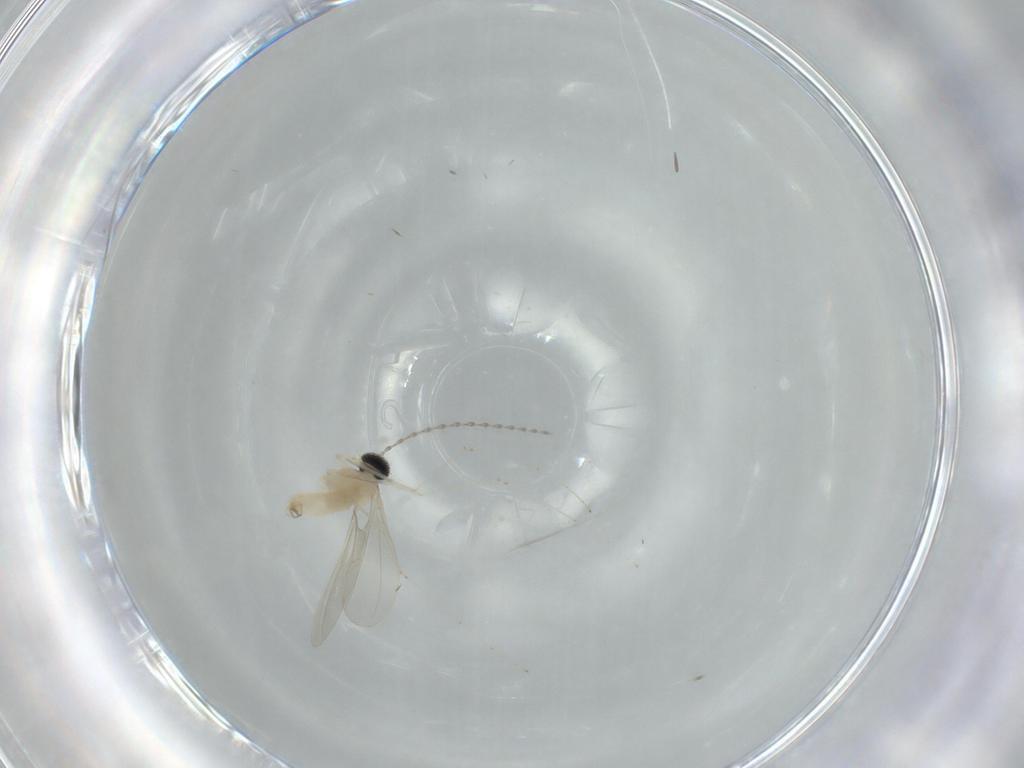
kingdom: Animalia
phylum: Arthropoda
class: Insecta
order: Diptera
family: Cecidomyiidae
